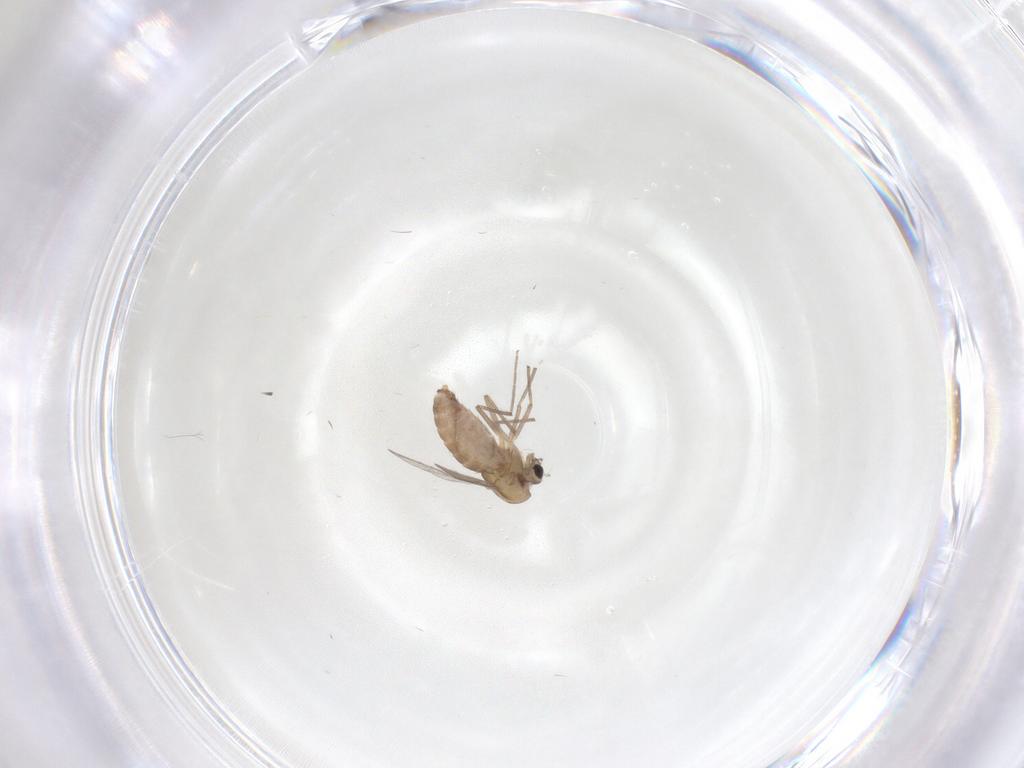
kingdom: Animalia
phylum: Arthropoda
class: Insecta
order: Diptera
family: Chironomidae
